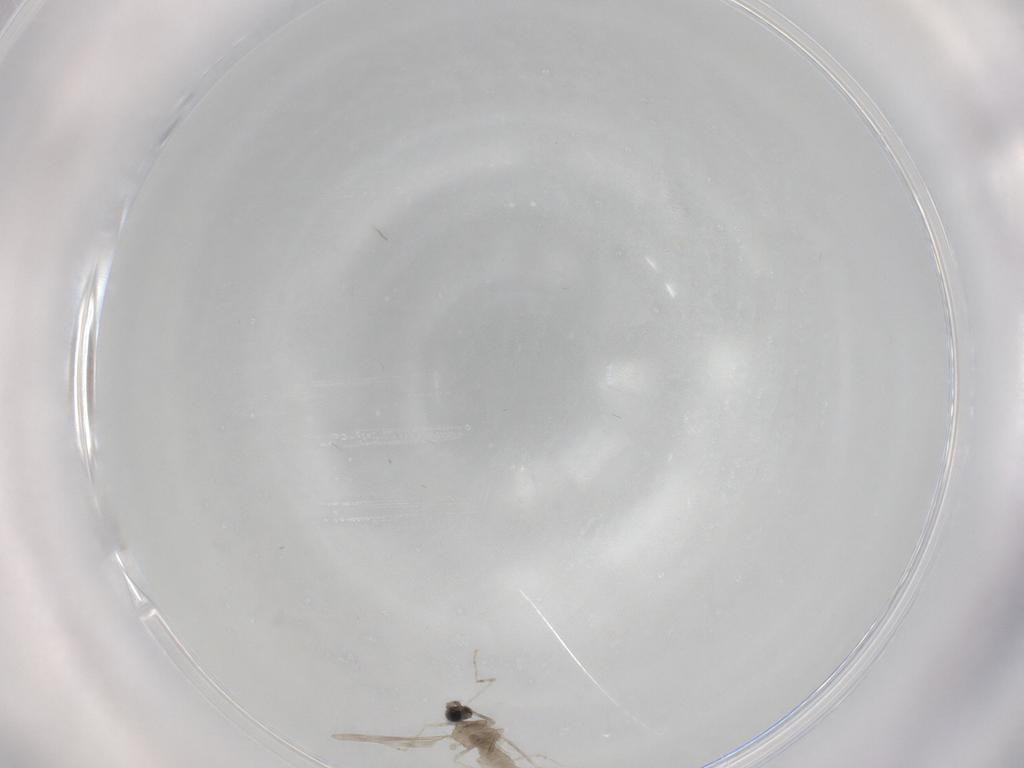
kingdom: Animalia
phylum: Arthropoda
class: Insecta
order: Diptera
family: Cecidomyiidae
